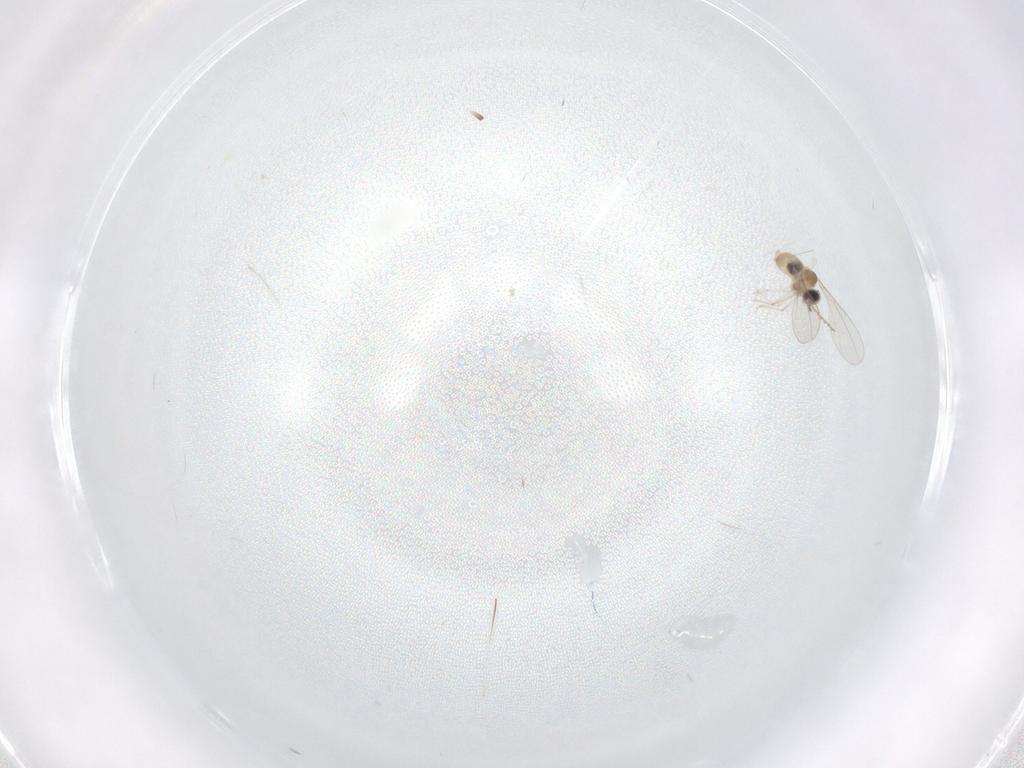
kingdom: Animalia
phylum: Arthropoda
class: Insecta
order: Diptera
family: Cecidomyiidae
